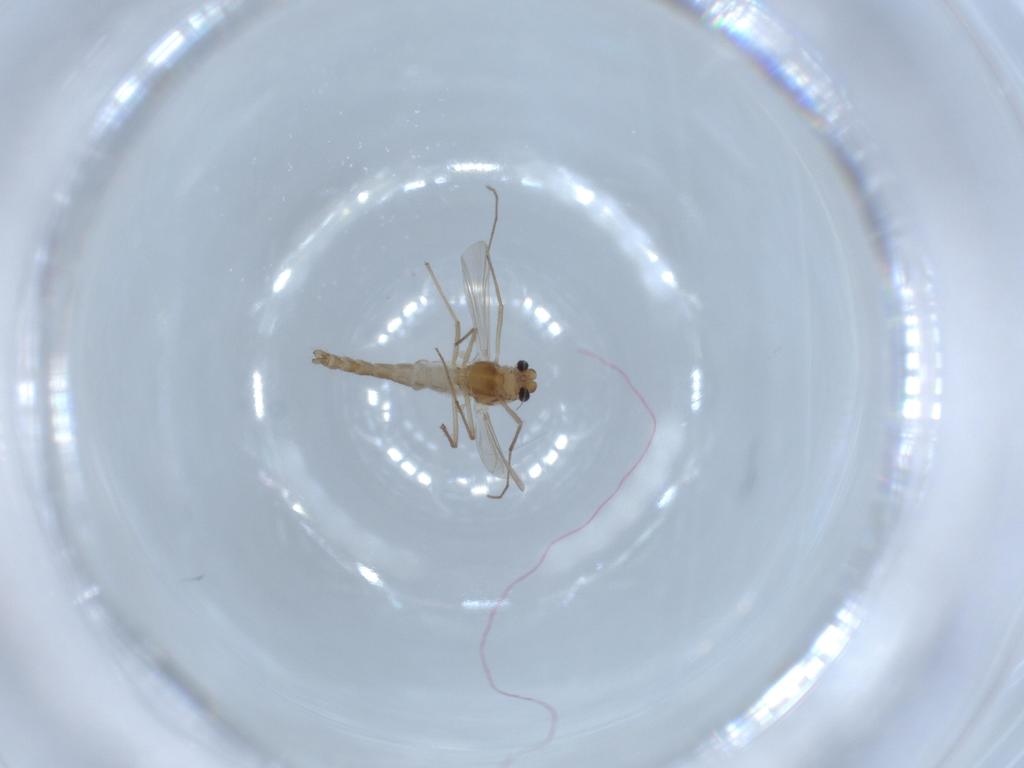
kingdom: Animalia
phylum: Arthropoda
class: Insecta
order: Diptera
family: Chironomidae
